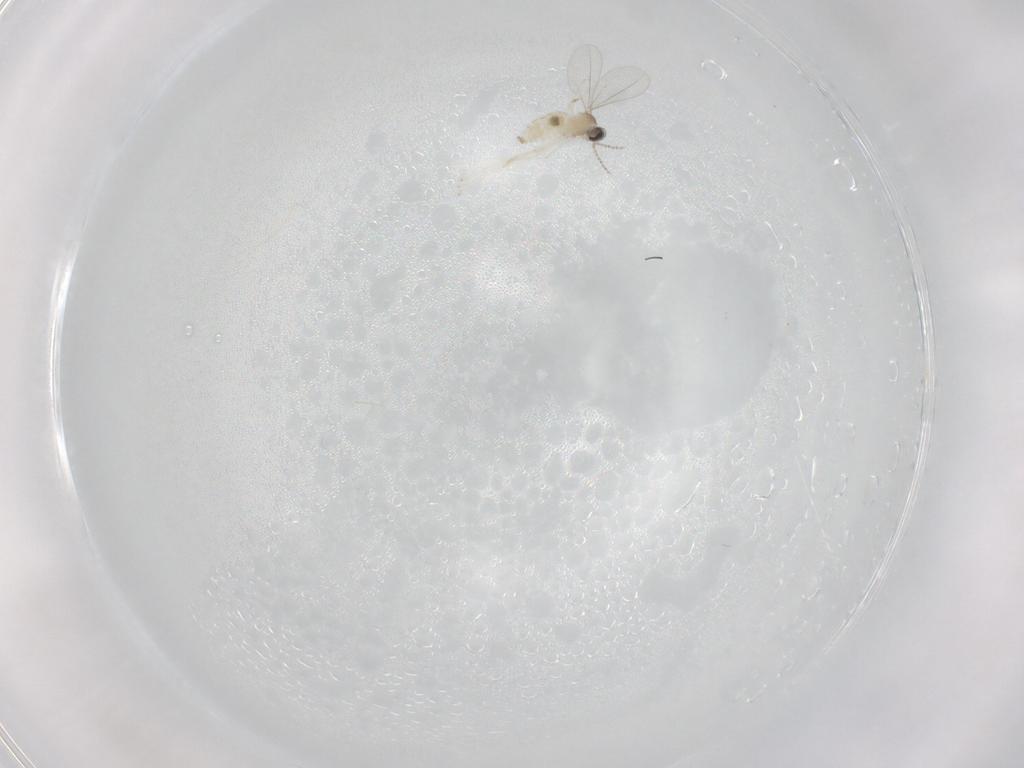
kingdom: Animalia
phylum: Arthropoda
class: Insecta
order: Diptera
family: Cecidomyiidae
